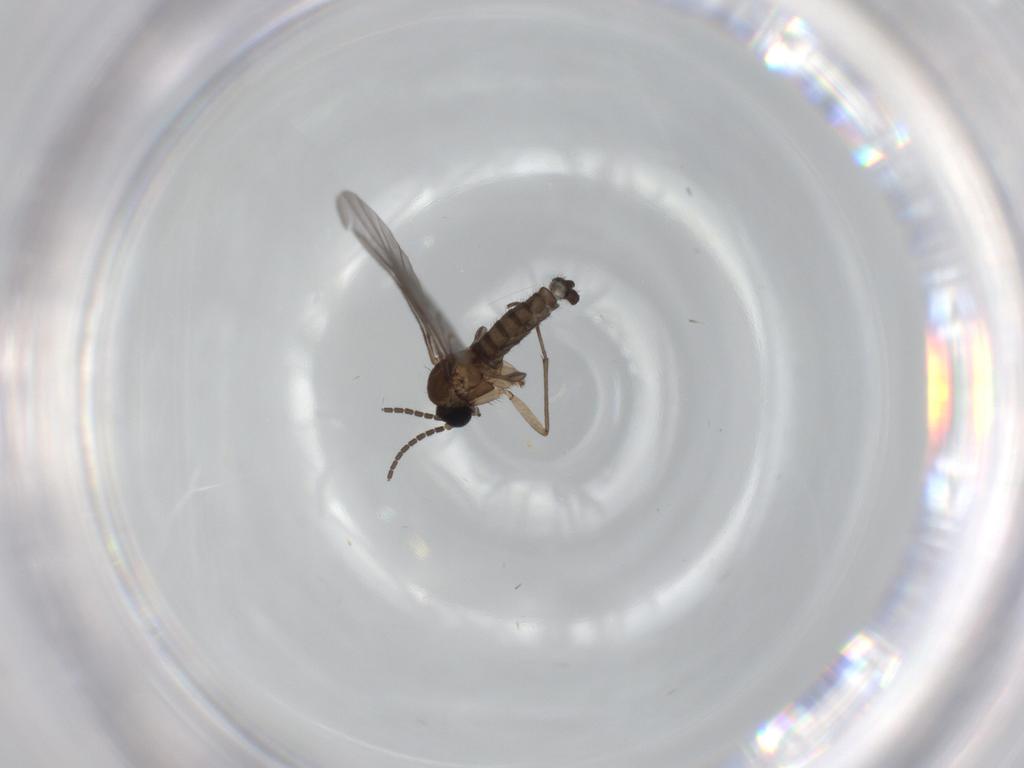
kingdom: Animalia
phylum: Arthropoda
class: Insecta
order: Diptera
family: Sciaridae
